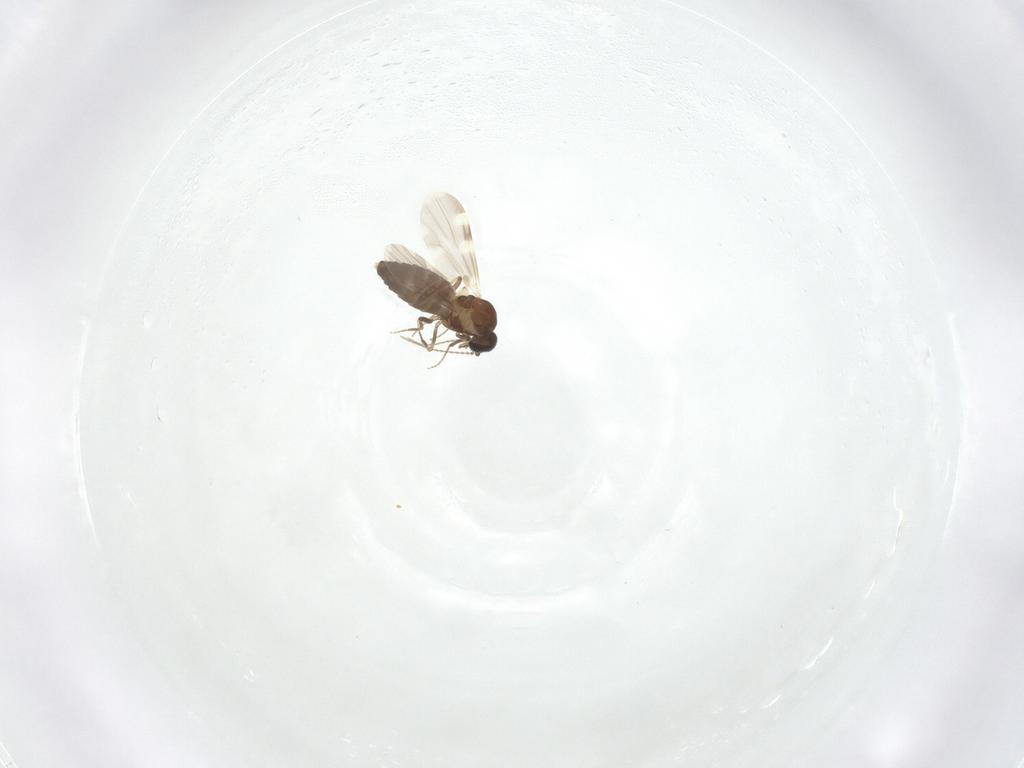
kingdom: Animalia
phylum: Arthropoda
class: Insecta
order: Diptera
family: Ceratopogonidae
